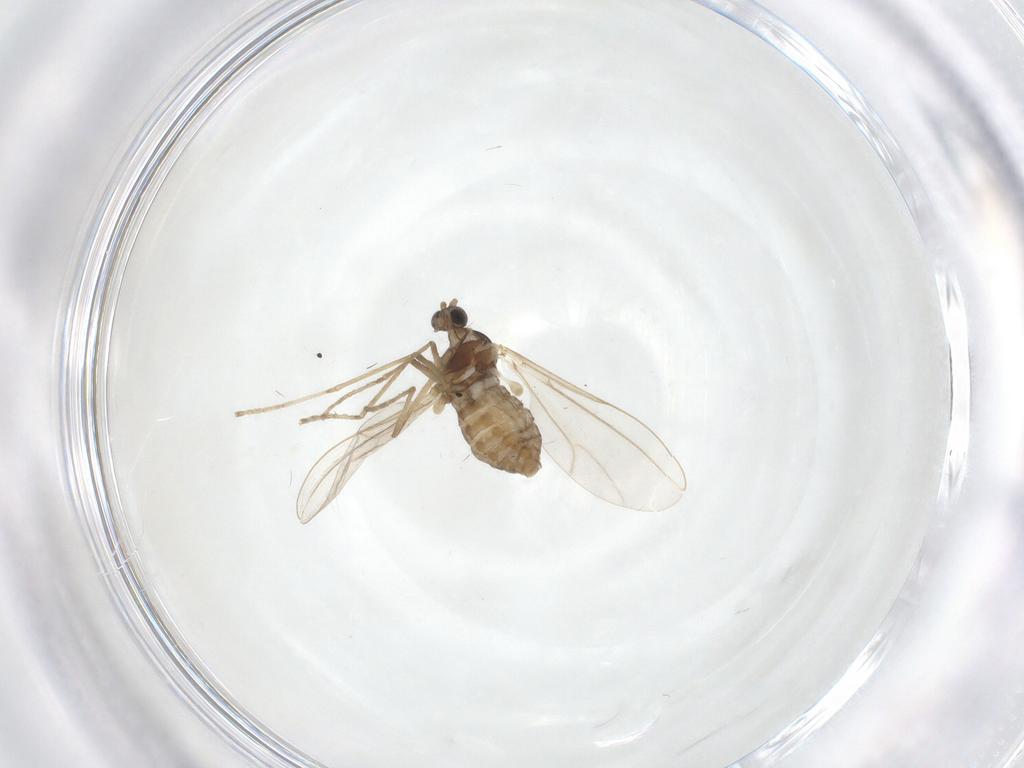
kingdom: Animalia
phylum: Arthropoda
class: Insecta
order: Diptera
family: Cecidomyiidae
